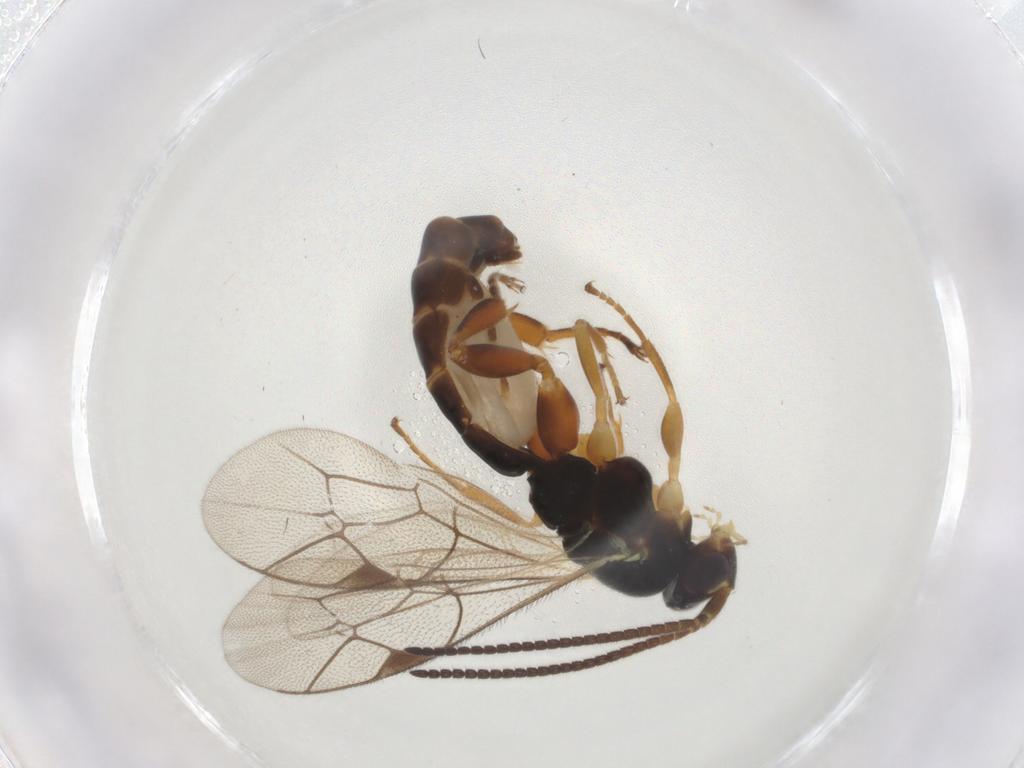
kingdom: Animalia
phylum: Arthropoda
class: Insecta
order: Hymenoptera
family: Ichneumonidae
